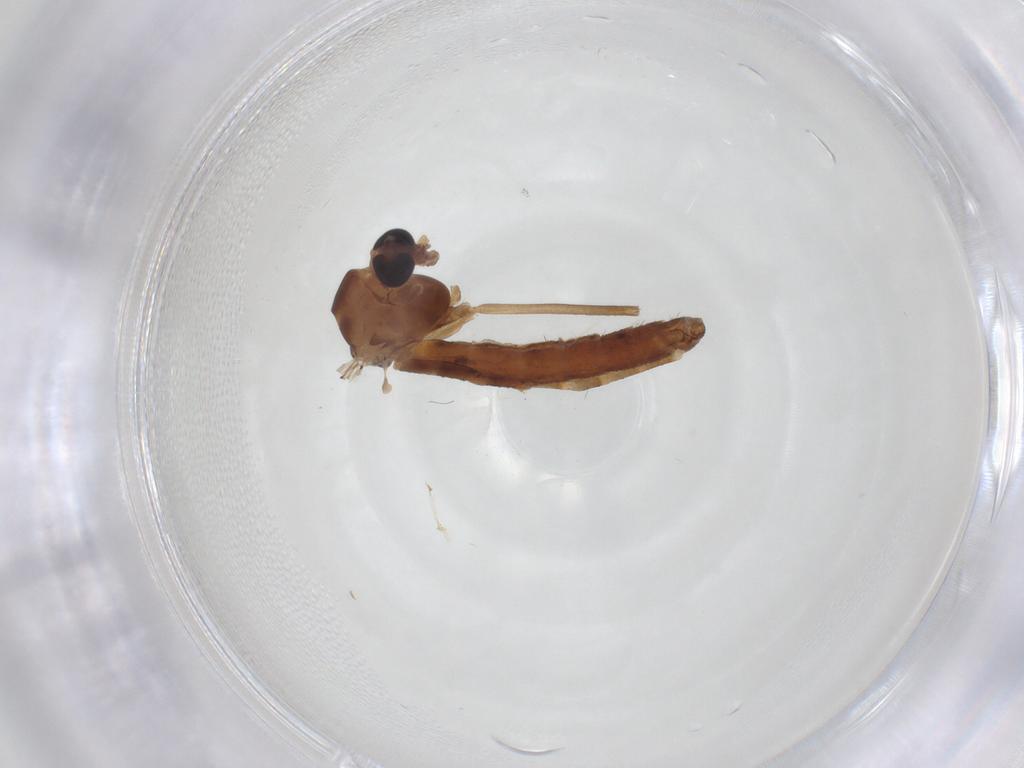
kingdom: Animalia
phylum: Arthropoda
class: Insecta
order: Diptera
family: Chironomidae
